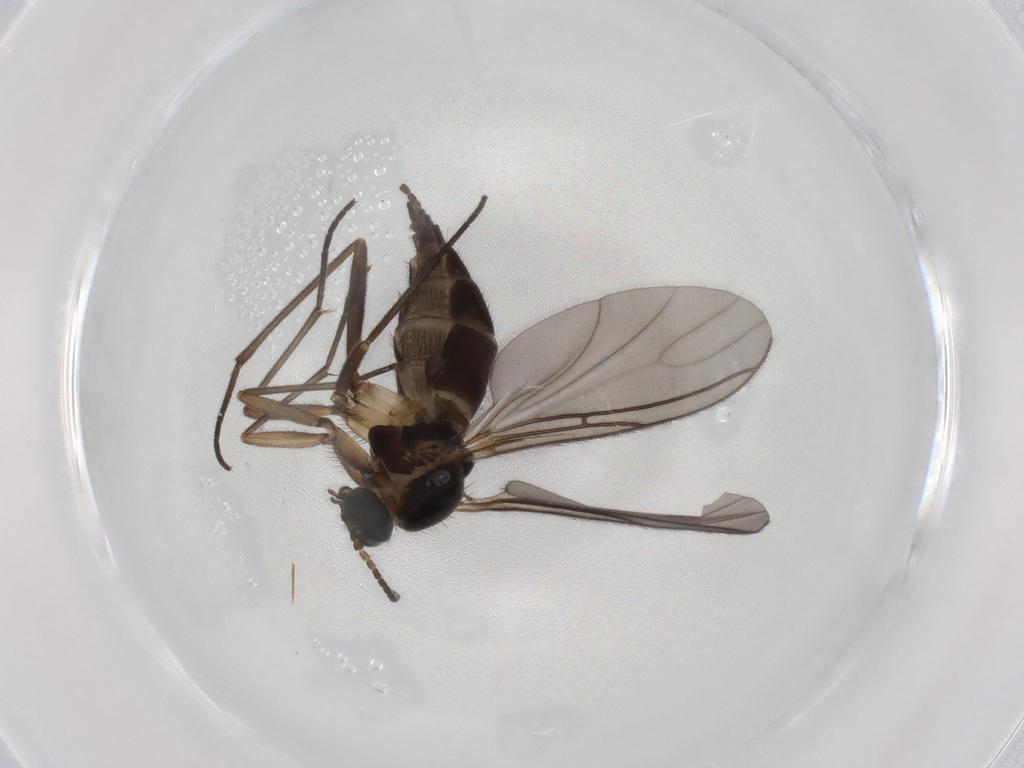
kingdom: Animalia
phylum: Arthropoda
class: Insecta
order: Diptera
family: Sciaridae
